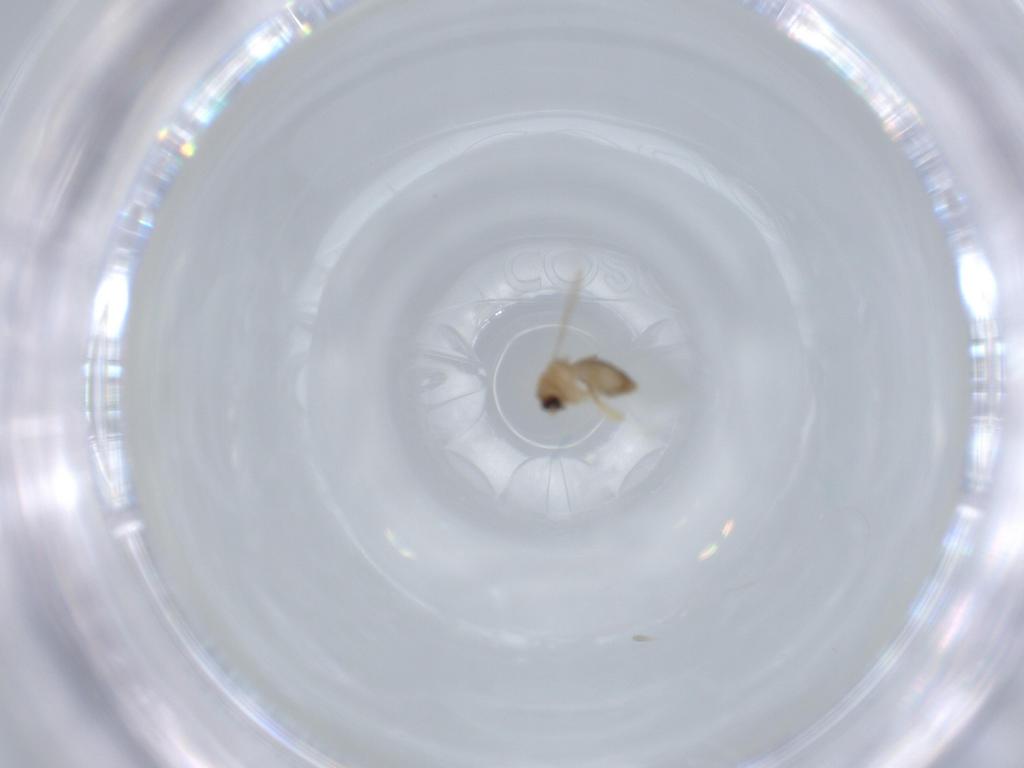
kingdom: Animalia
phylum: Arthropoda
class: Insecta
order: Diptera
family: Ceratopogonidae
